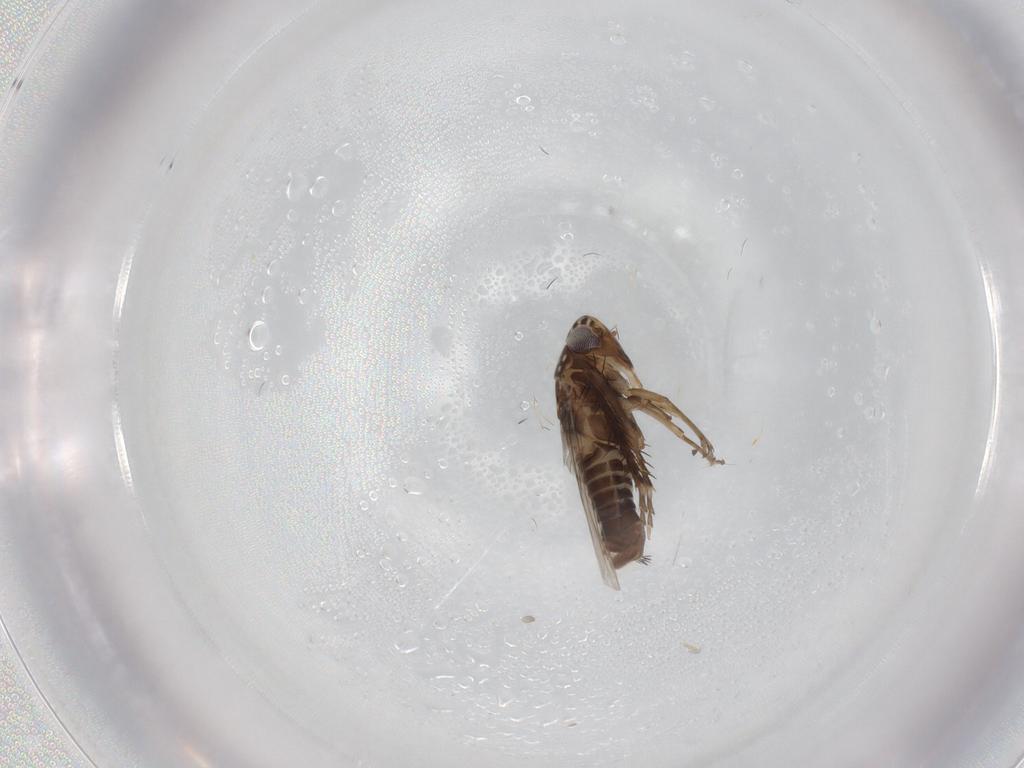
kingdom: Animalia
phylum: Arthropoda
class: Insecta
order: Hemiptera
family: Cicadellidae
